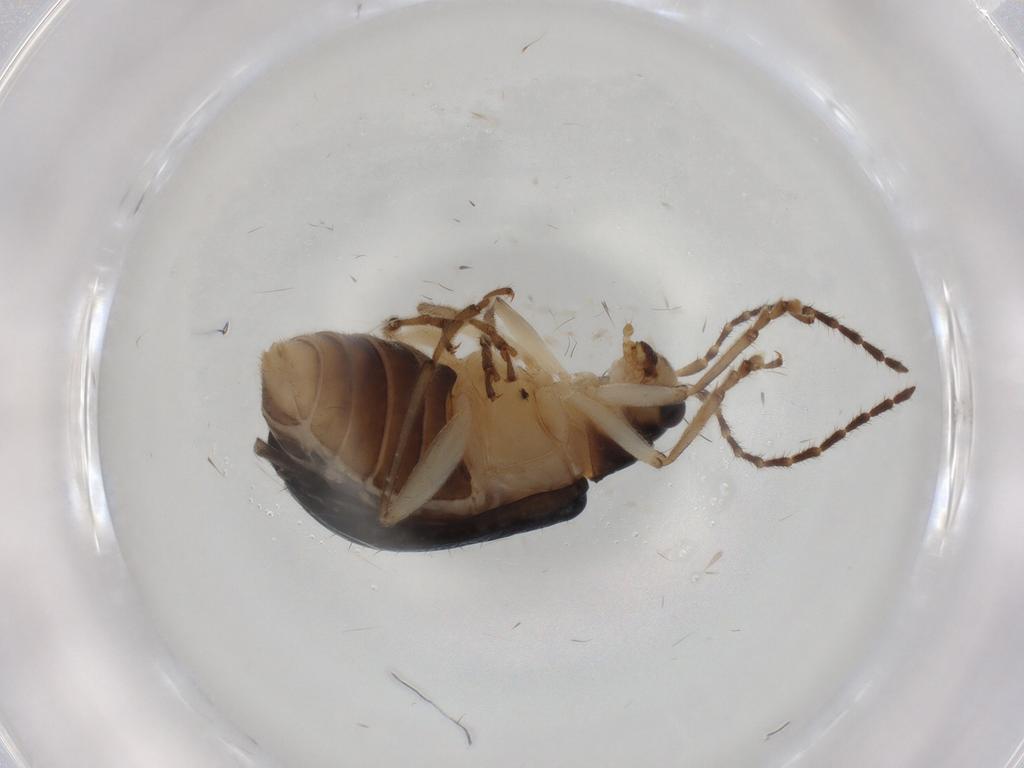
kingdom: Animalia
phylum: Arthropoda
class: Insecta
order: Coleoptera
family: Chrysomelidae
